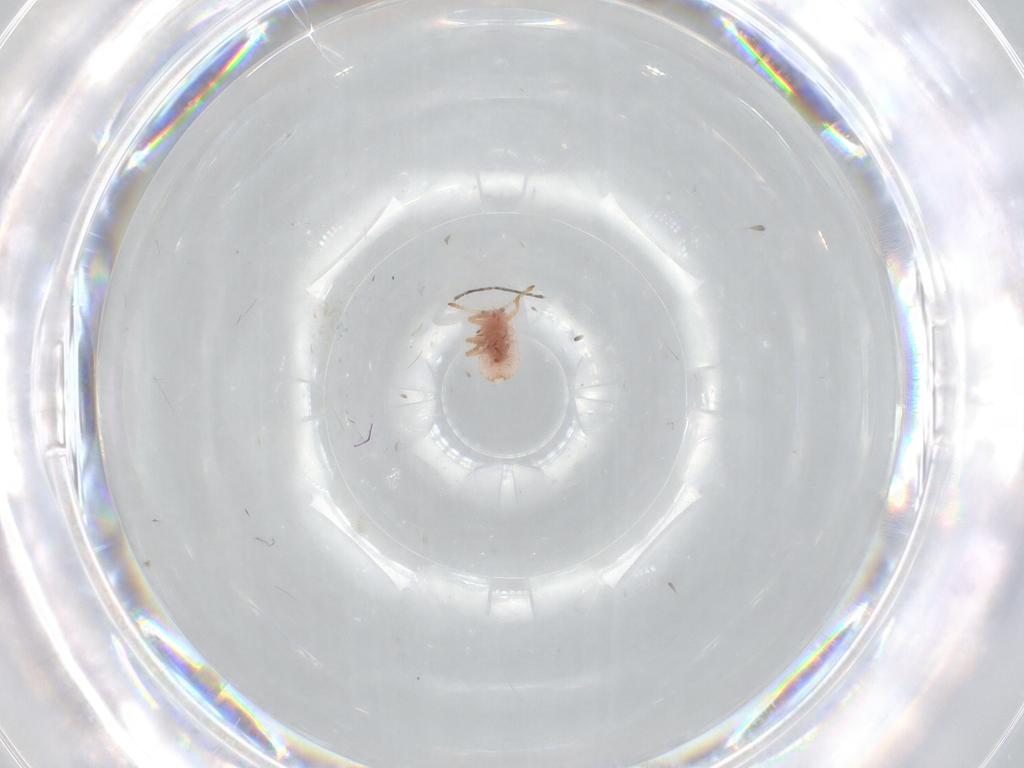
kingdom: Animalia
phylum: Arthropoda
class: Insecta
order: Hemiptera
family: Coccoidea_incertae_sedis
